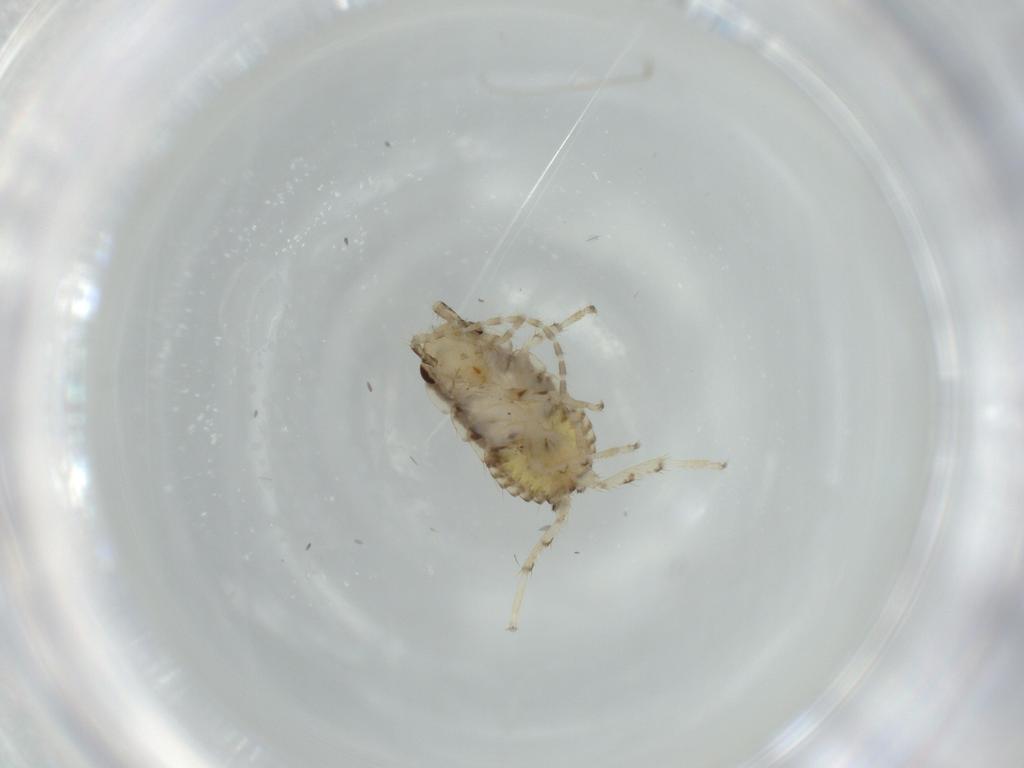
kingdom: Animalia
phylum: Arthropoda
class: Insecta
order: Blattodea
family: Ectobiidae
